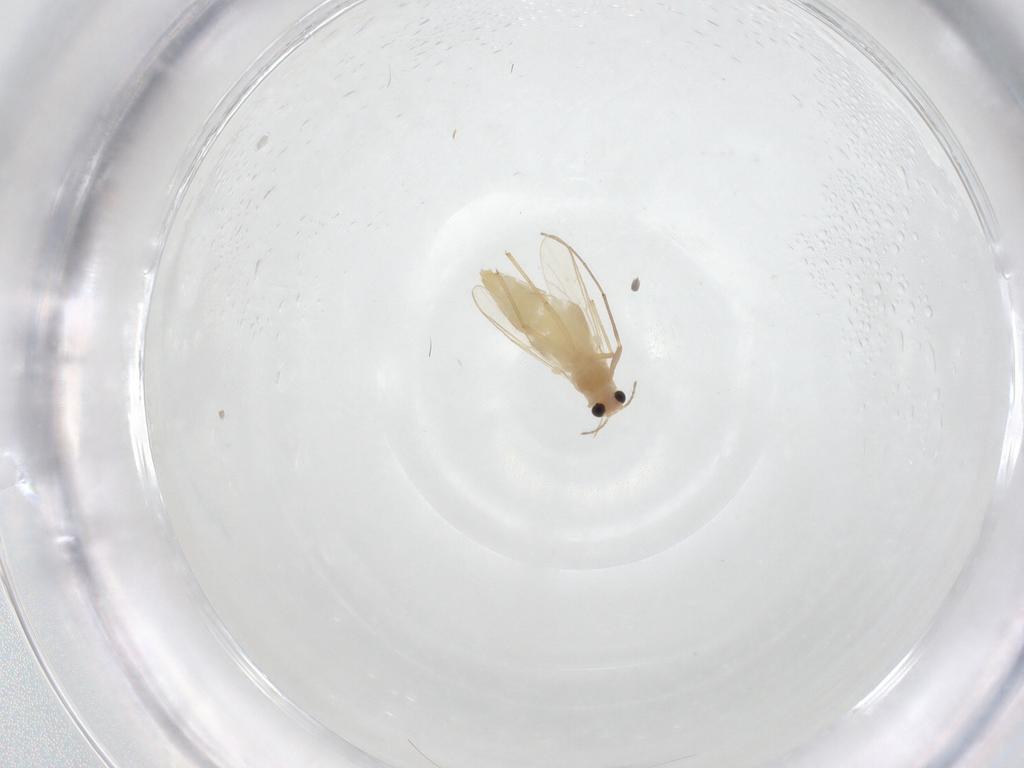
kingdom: Animalia
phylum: Arthropoda
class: Insecta
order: Diptera
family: Chironomidae
